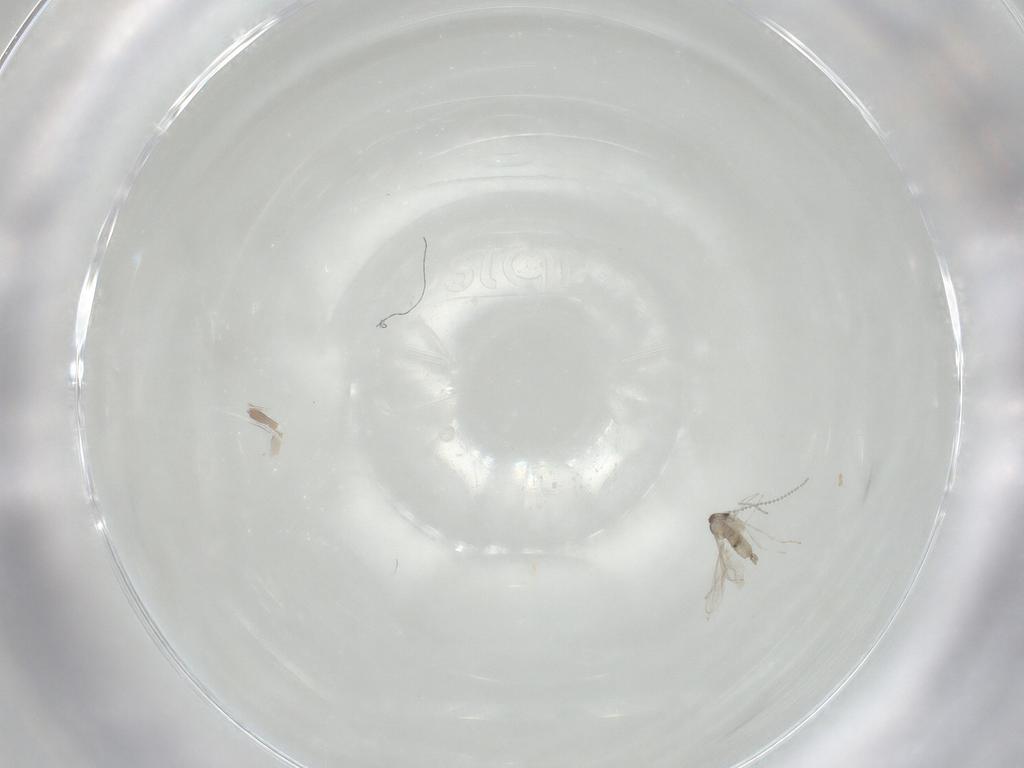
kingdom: Animalia
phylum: Arthropoda
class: Insecta
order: Diptera
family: Cecidomyiidae
